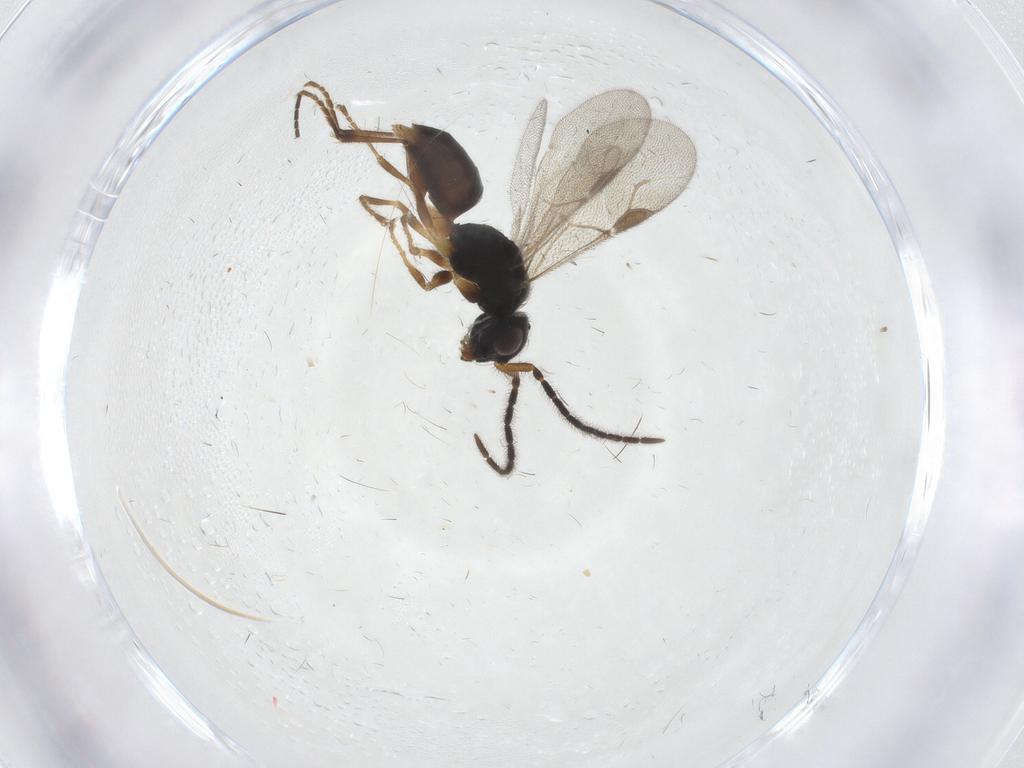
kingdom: Animalia
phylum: Arthropoda
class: Insecta
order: Hymenoptera
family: Dryinidae
